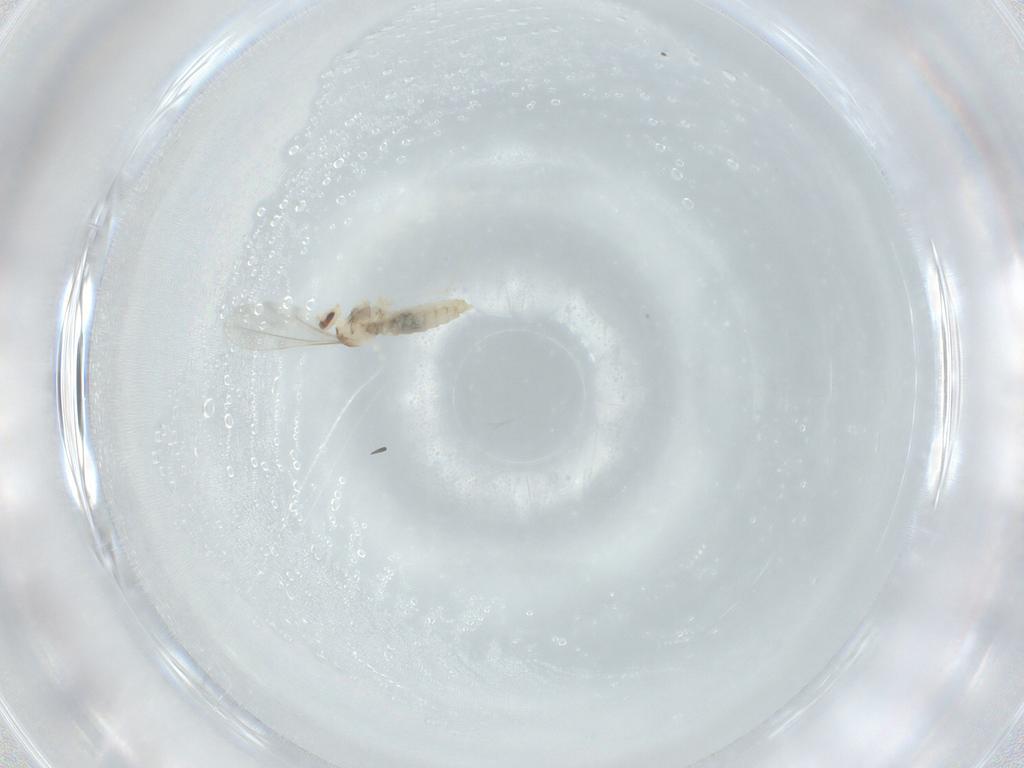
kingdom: Animalia
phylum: Arthropoda
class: Insecta
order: Diptera
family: Cecidomyiidae
